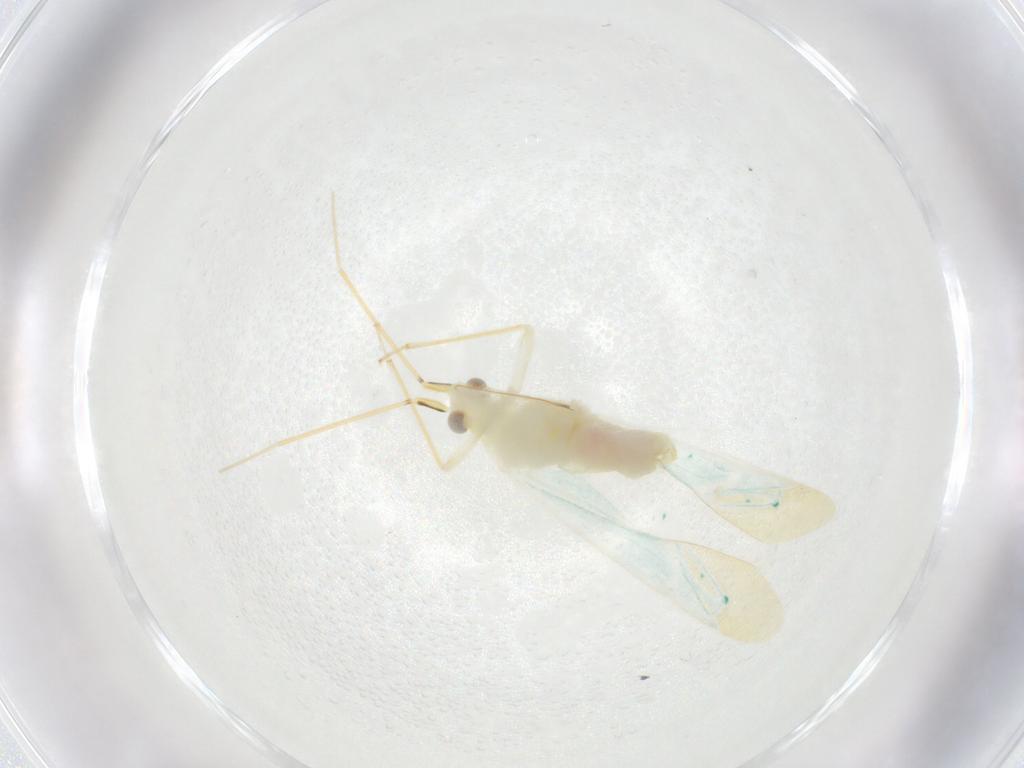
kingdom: Animalia
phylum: Arthropoda
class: Insecta
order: Hemiptera
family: Miridae
